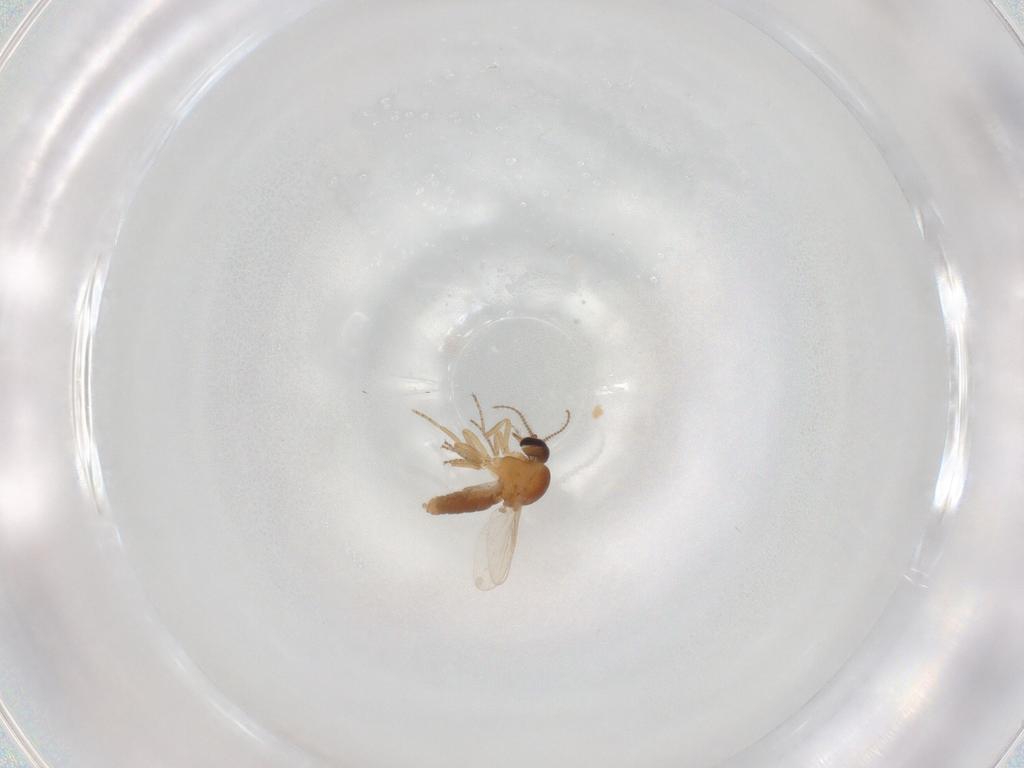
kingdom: Animalia
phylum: Arthropoda
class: Insecta
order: Diptera
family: Ceratopogonidae
